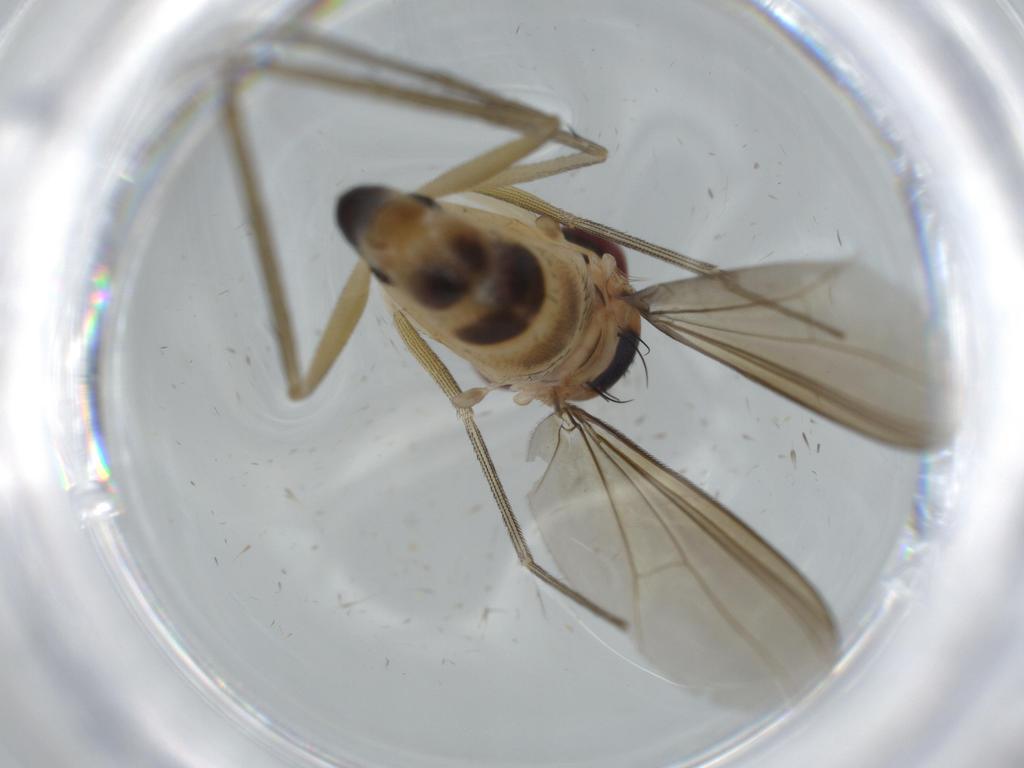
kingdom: Animalia
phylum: Arthropoda
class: Insecta
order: Diptera
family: Dolichopodidae
